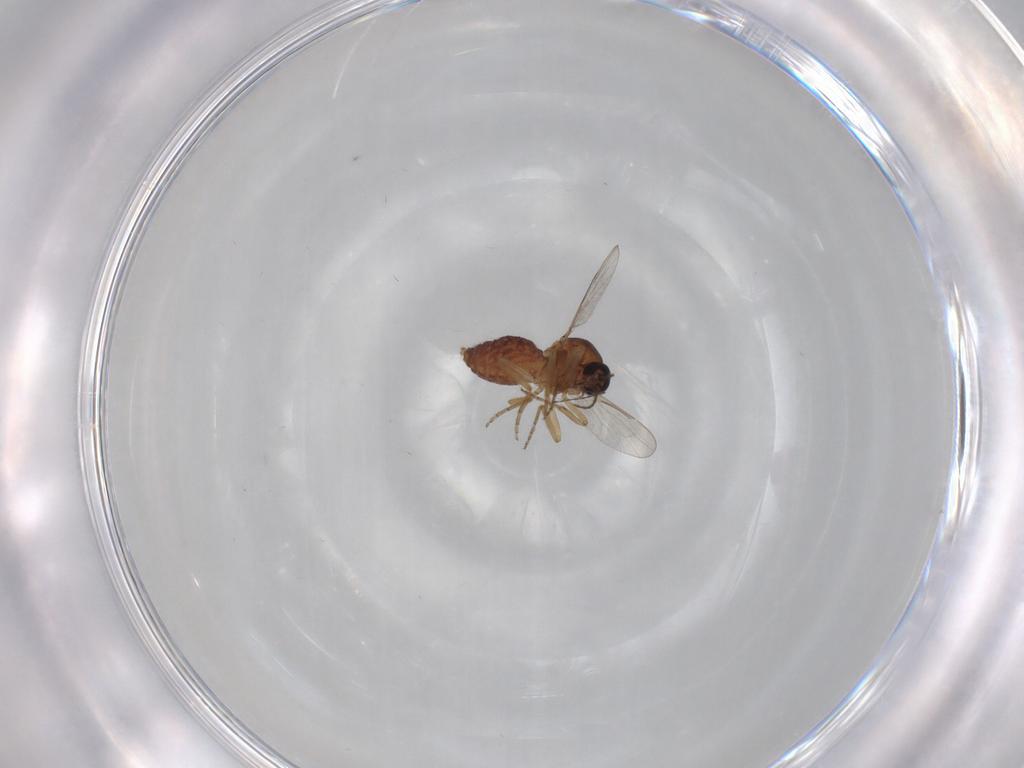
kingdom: Animalia
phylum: Arthropoda
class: Insecta
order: Diptera
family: Ceratopogonidae
